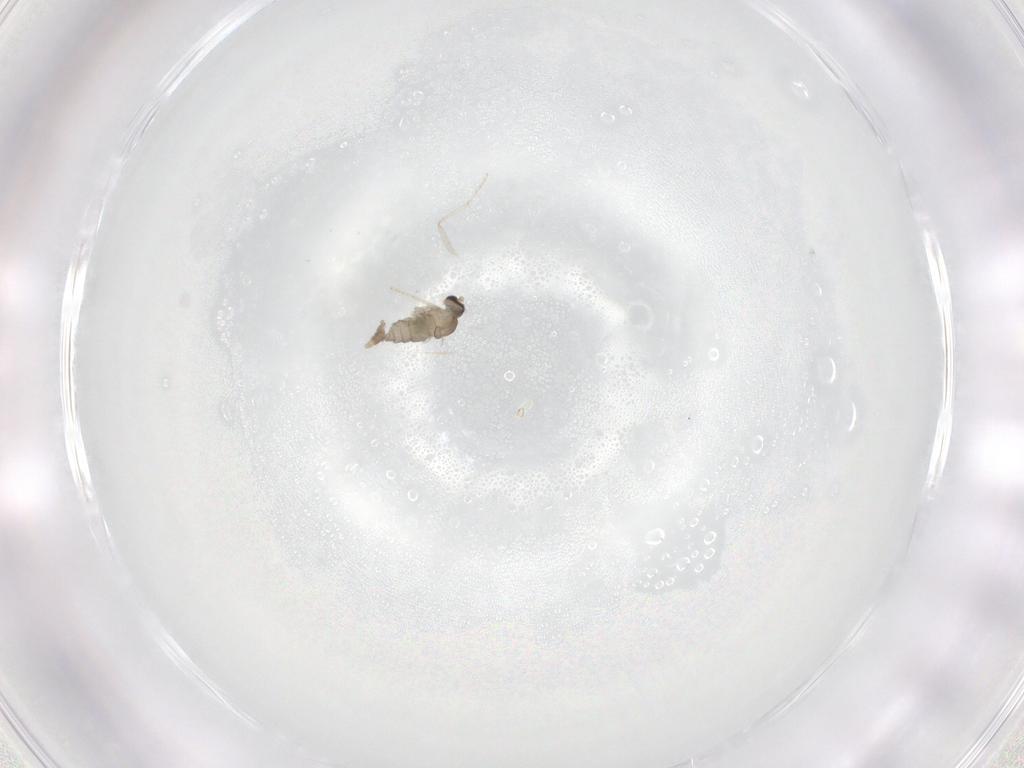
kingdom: Animalia
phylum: Arthropoda
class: Insecta
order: Diptera
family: Cecidomyiidae
